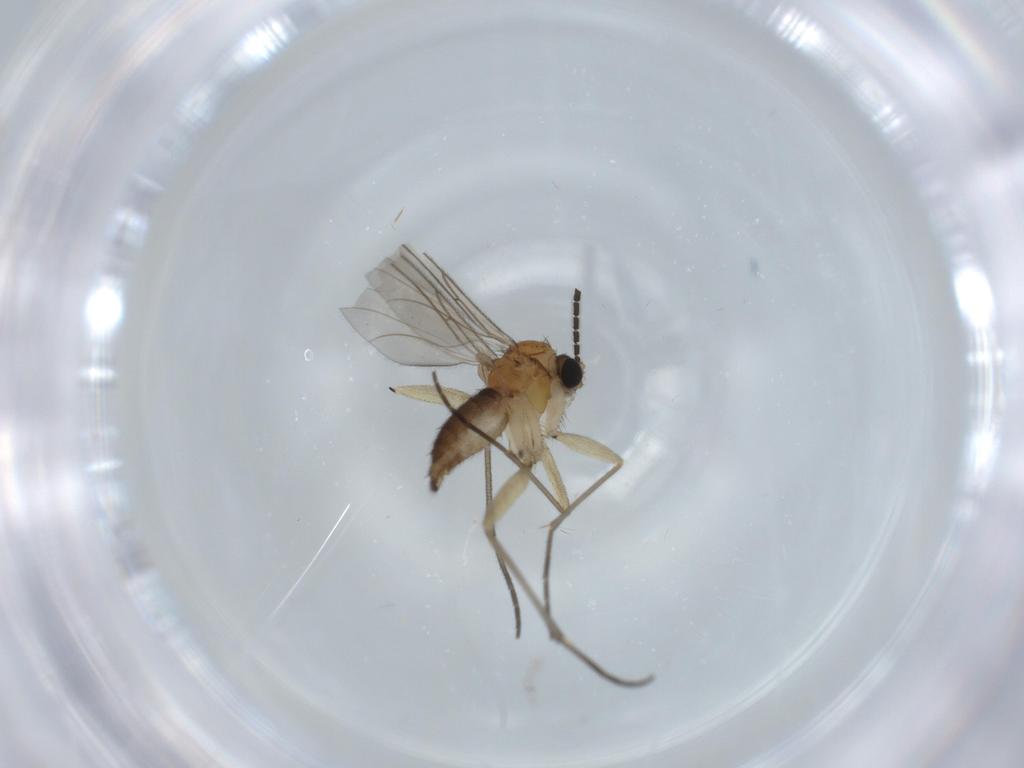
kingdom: Animalia
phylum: Arthropoda
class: Insecta
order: Diptera
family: Sciaridae
